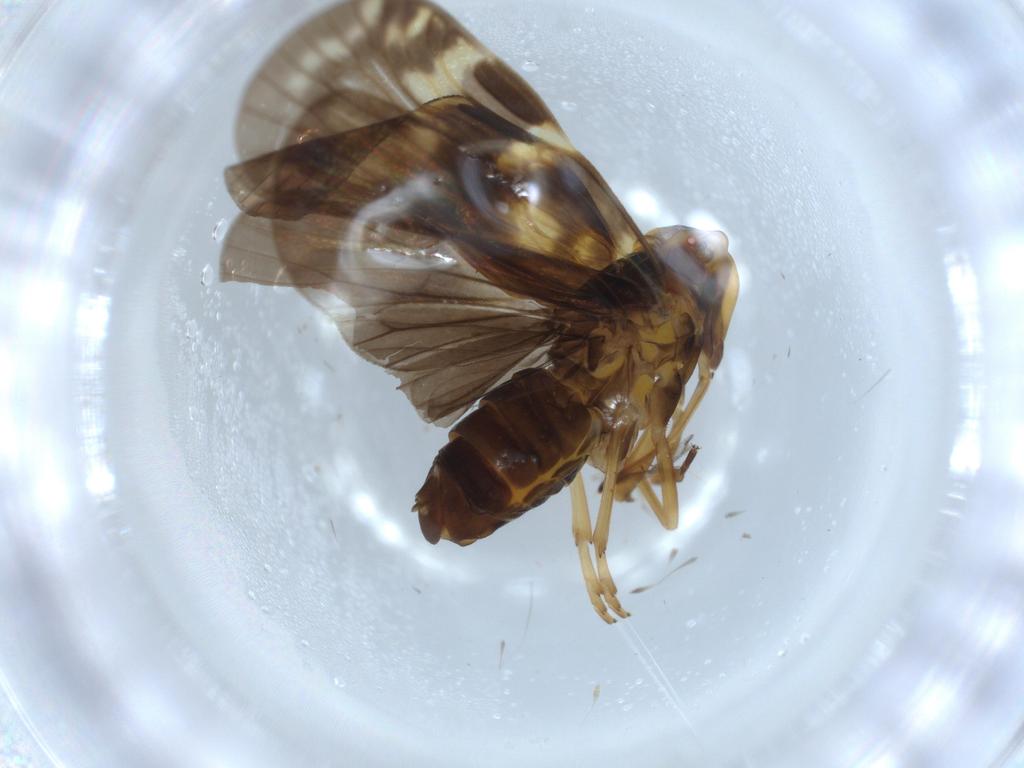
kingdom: Animalia
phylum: Arthropoda
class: Insecta
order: Hemiptera
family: Cixiidae
